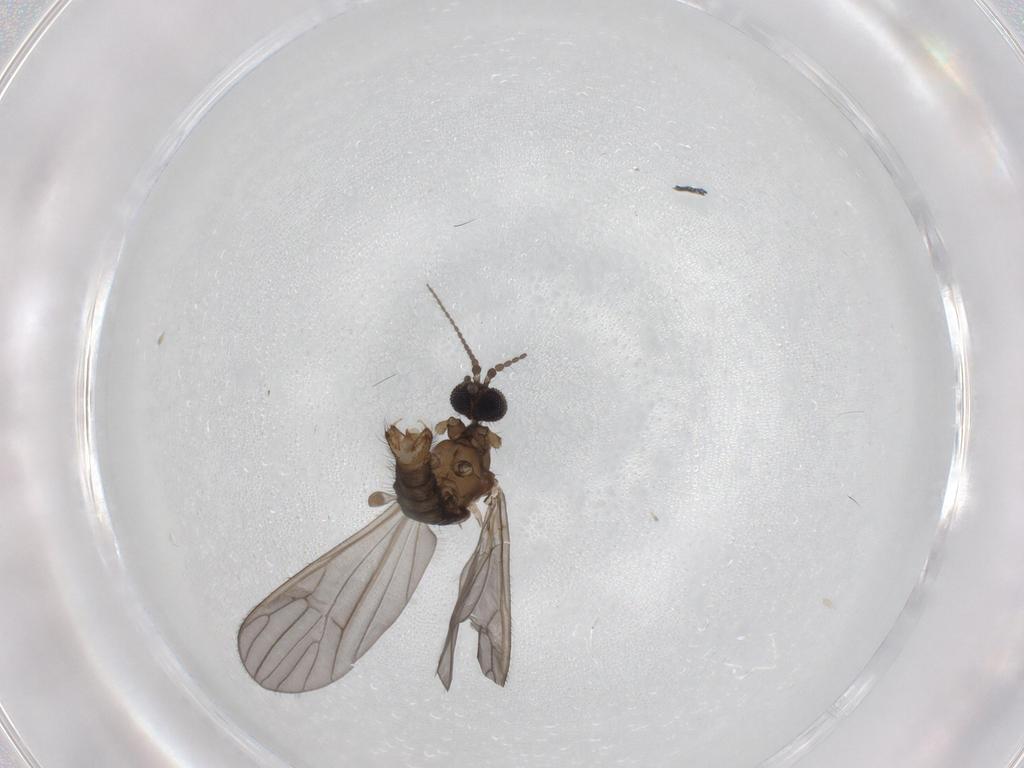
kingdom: Animalia
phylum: Arthropoda
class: Insecta
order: Diptera
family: Chironomidae
